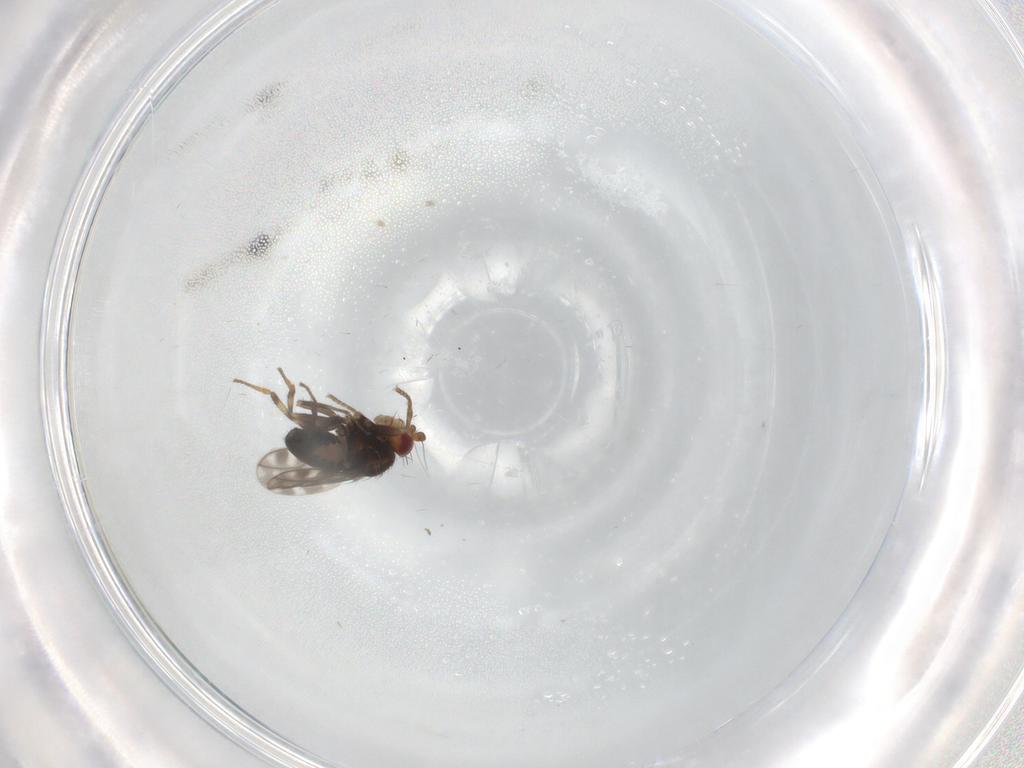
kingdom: Animalia
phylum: Arthropoda
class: Insecta
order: Diptera
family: Sphaeroceridae
